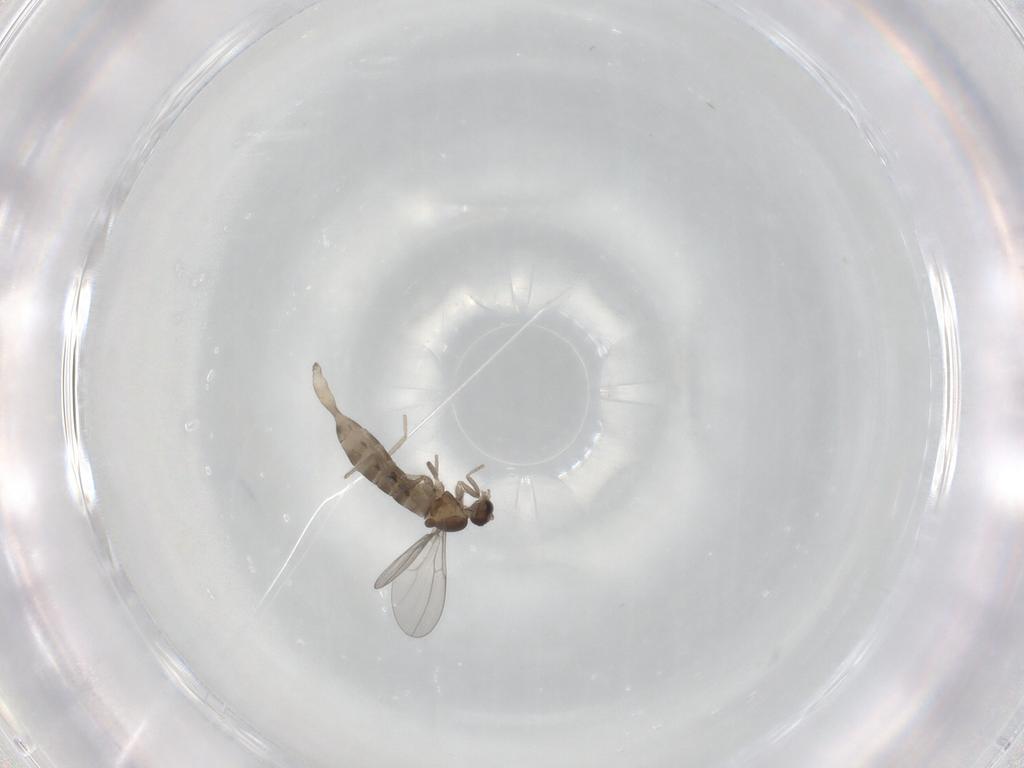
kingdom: Animalia
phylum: Arthropoda
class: Insecta
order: Diptera
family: Cecidomyiidae
